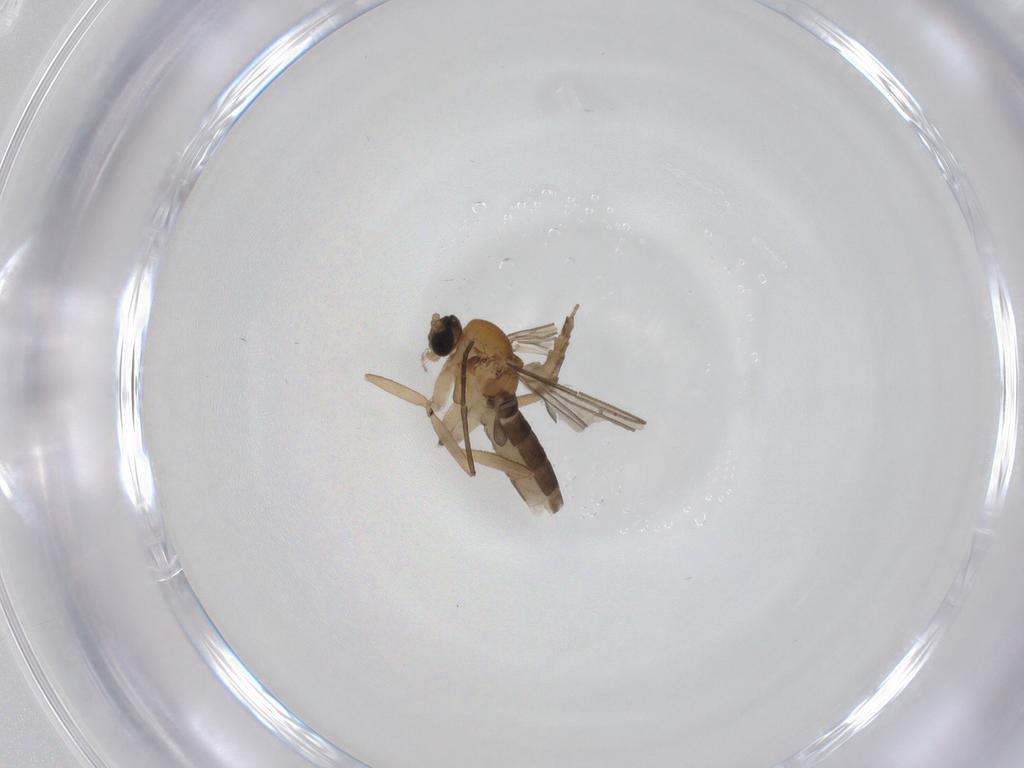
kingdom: Animalia
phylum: Arthropoda
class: Insecta
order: Diptera
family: Sciaridae
